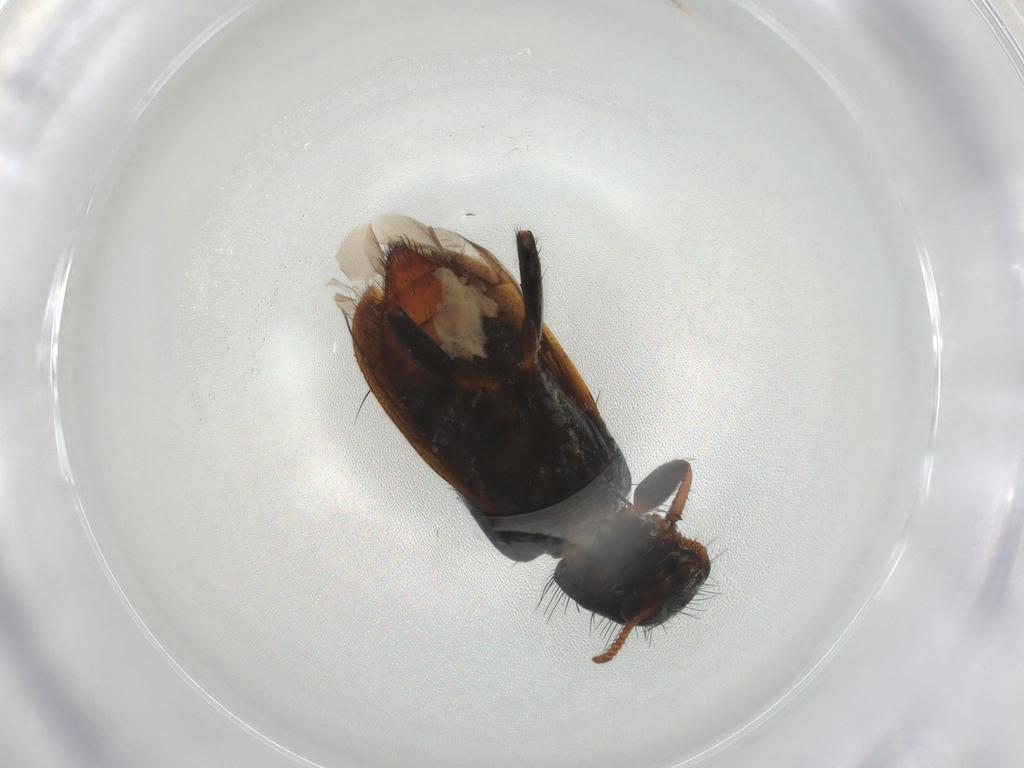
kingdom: Animalia
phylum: Arthropoda
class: Insecta
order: Coleoptera
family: Melyridae
